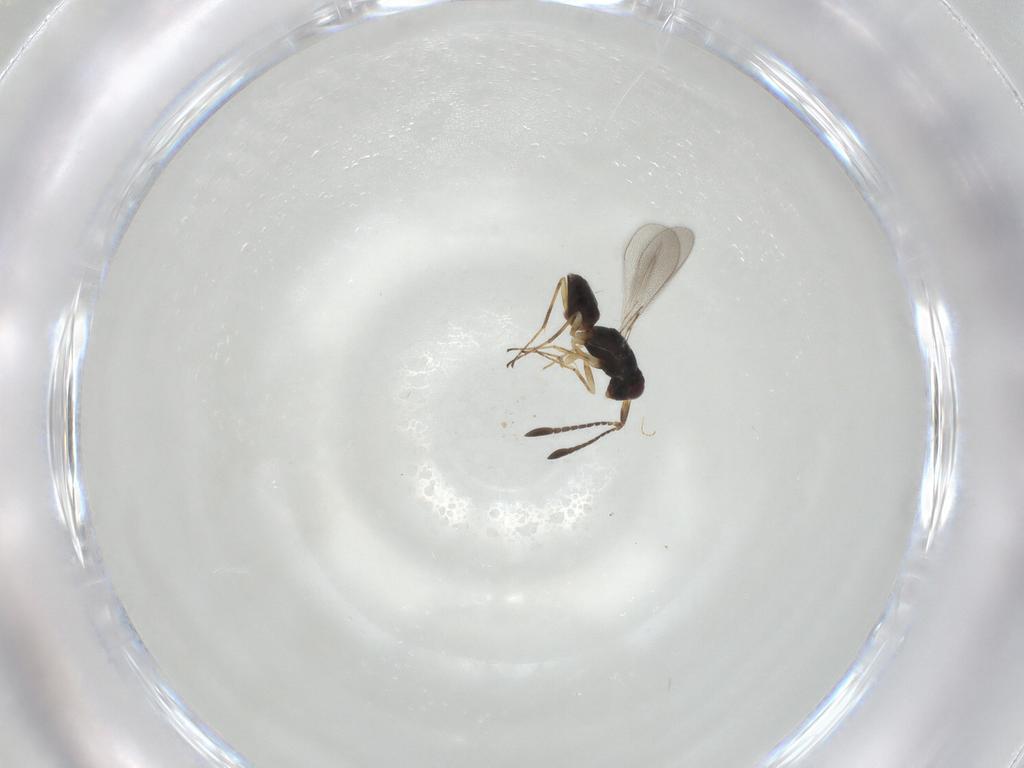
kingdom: Animalia
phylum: Arthropoda
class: Insecta
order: Hymenoptera
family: Mymaridae
